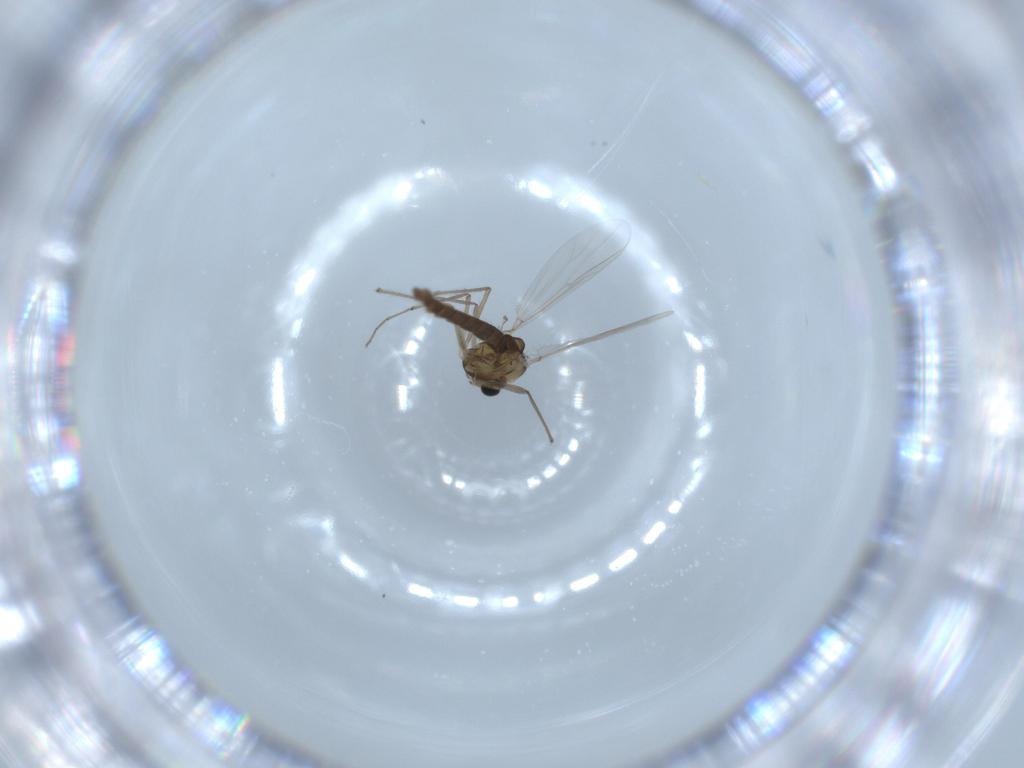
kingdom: Animalia
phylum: Arthropoda
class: Insecta
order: Diptera
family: Chironomidae
